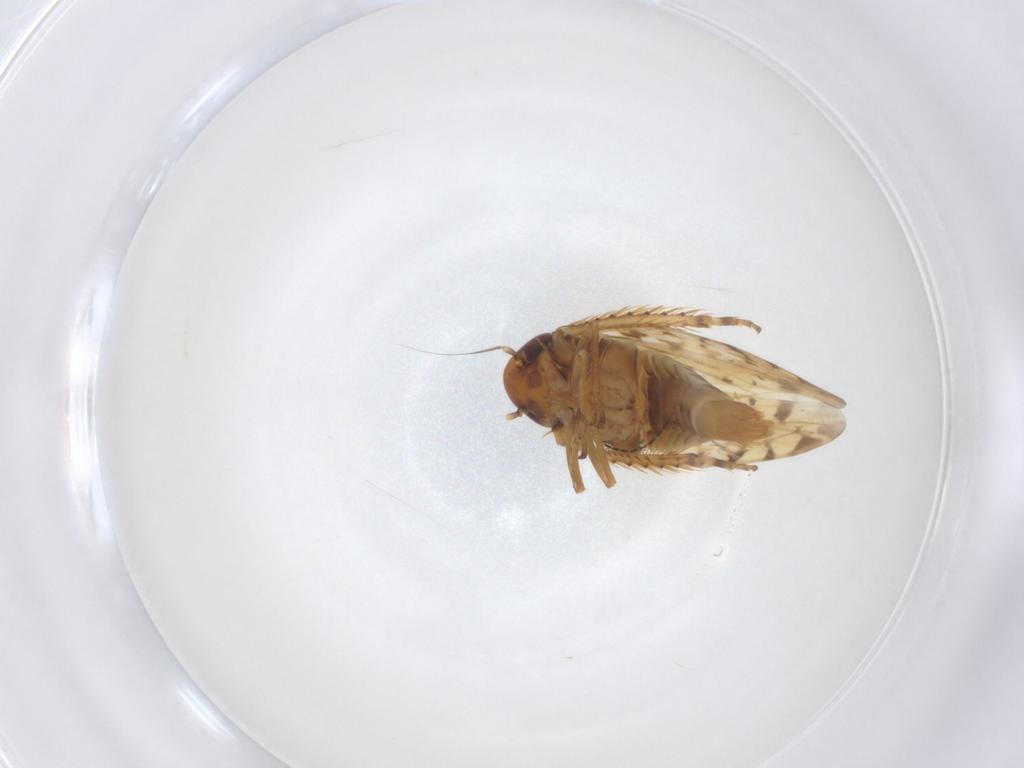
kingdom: Animalia
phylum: Arthropoda
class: Insecta
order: Hemiptera
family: Cicadellidae
